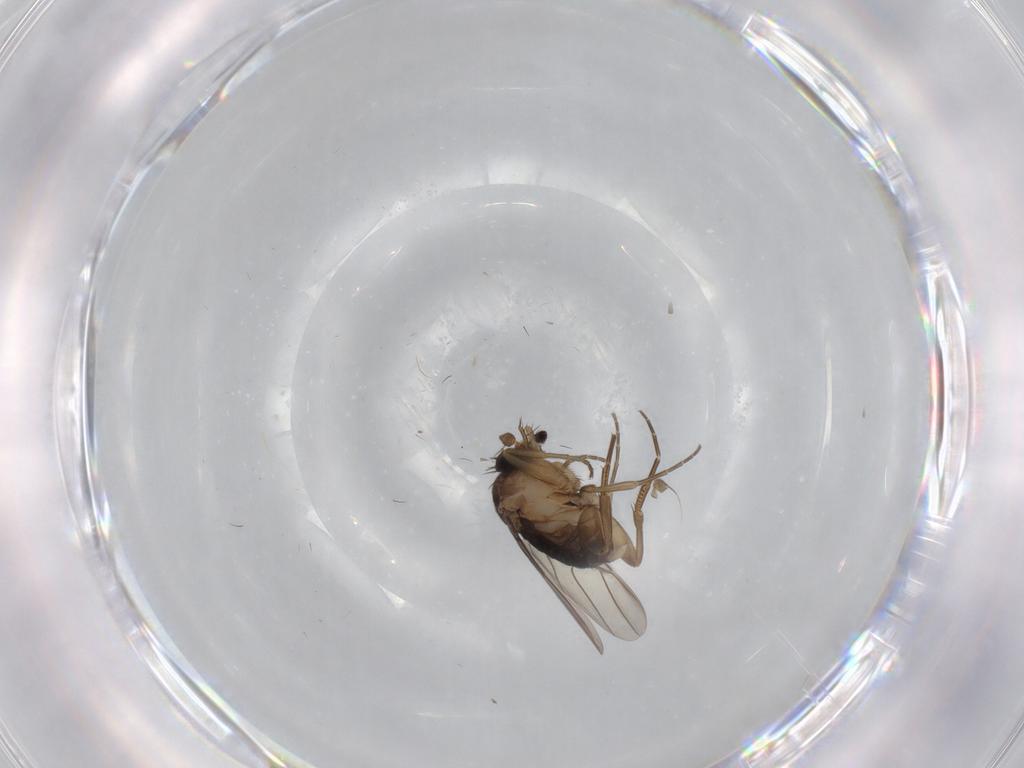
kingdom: Animalia
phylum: Arthropoda
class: Insecta
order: Diptera
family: Phoridae
